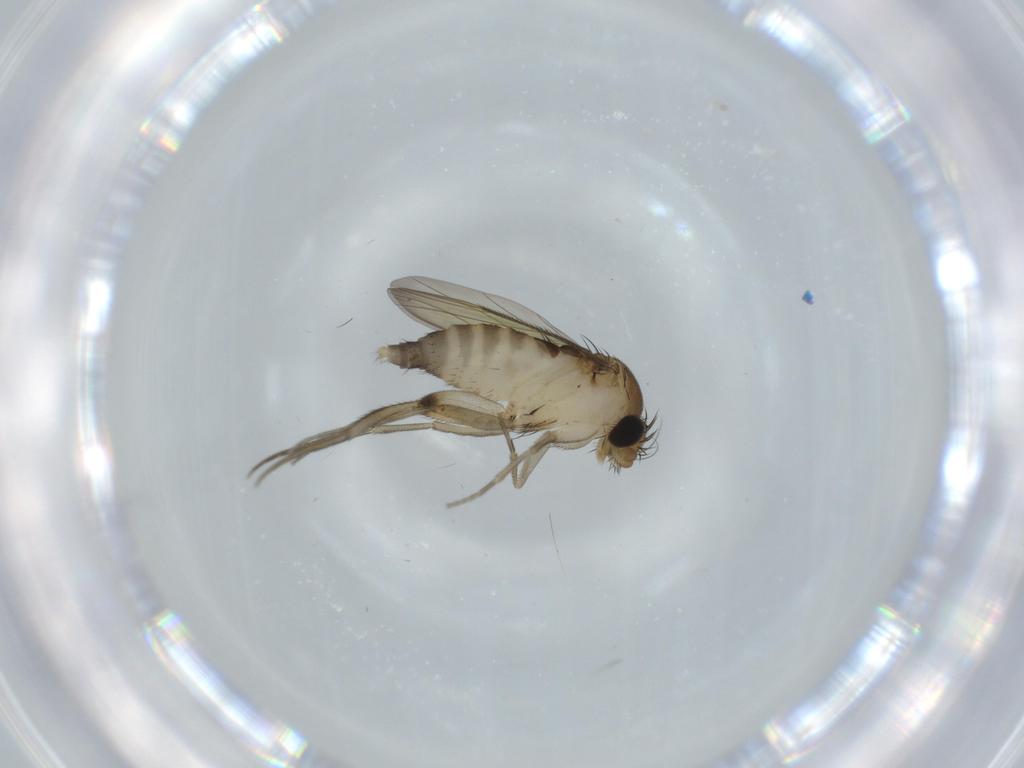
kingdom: Animalia
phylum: Arthropoda
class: Insecta
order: Diptera
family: Phoridae
